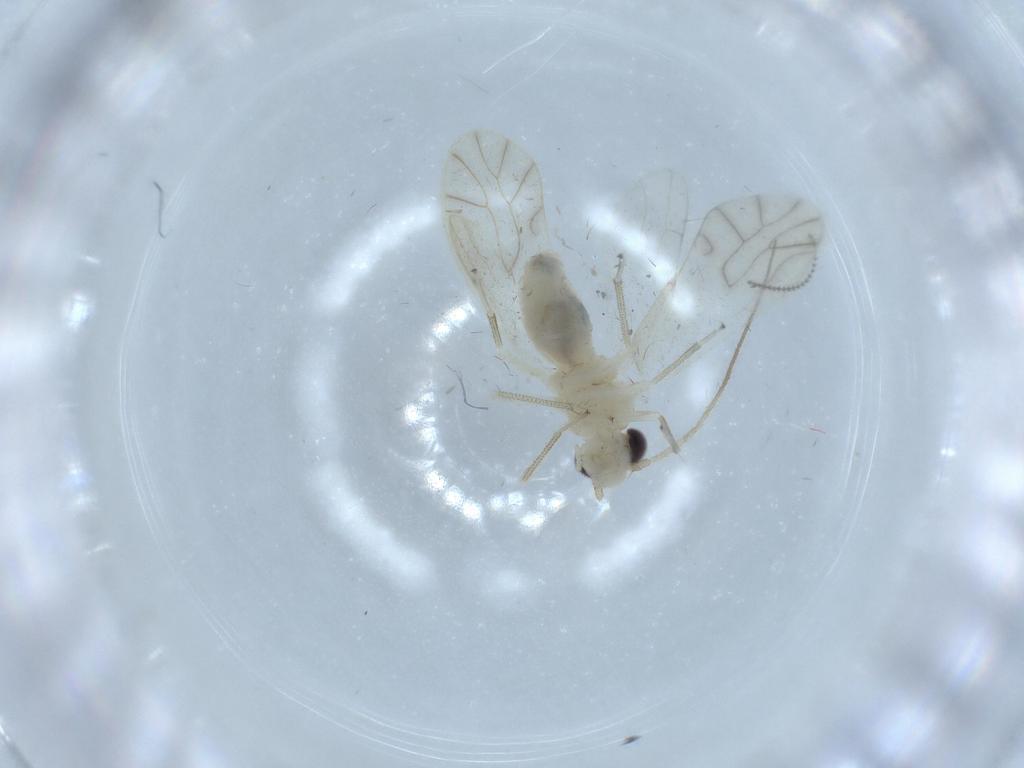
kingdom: Animalia
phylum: Arthropoda
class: Insecta
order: Psocodea
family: Caeciliusidae
